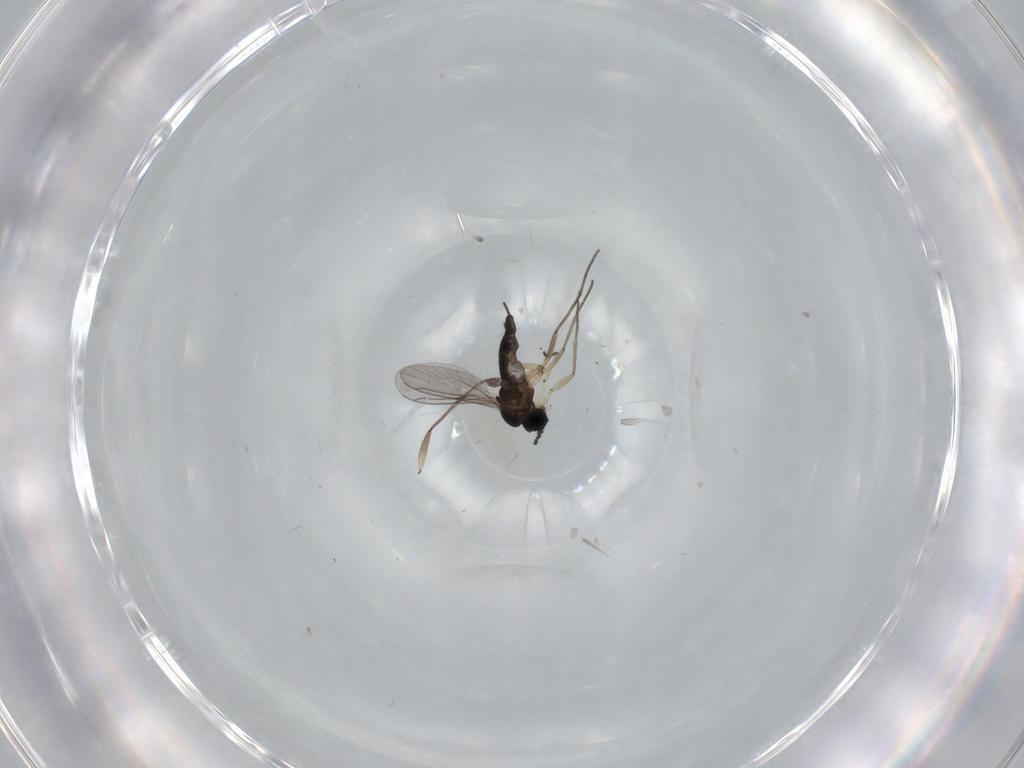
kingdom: Animalia
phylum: Arthropoda
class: Insecta
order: Diptera
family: Sciaridae
